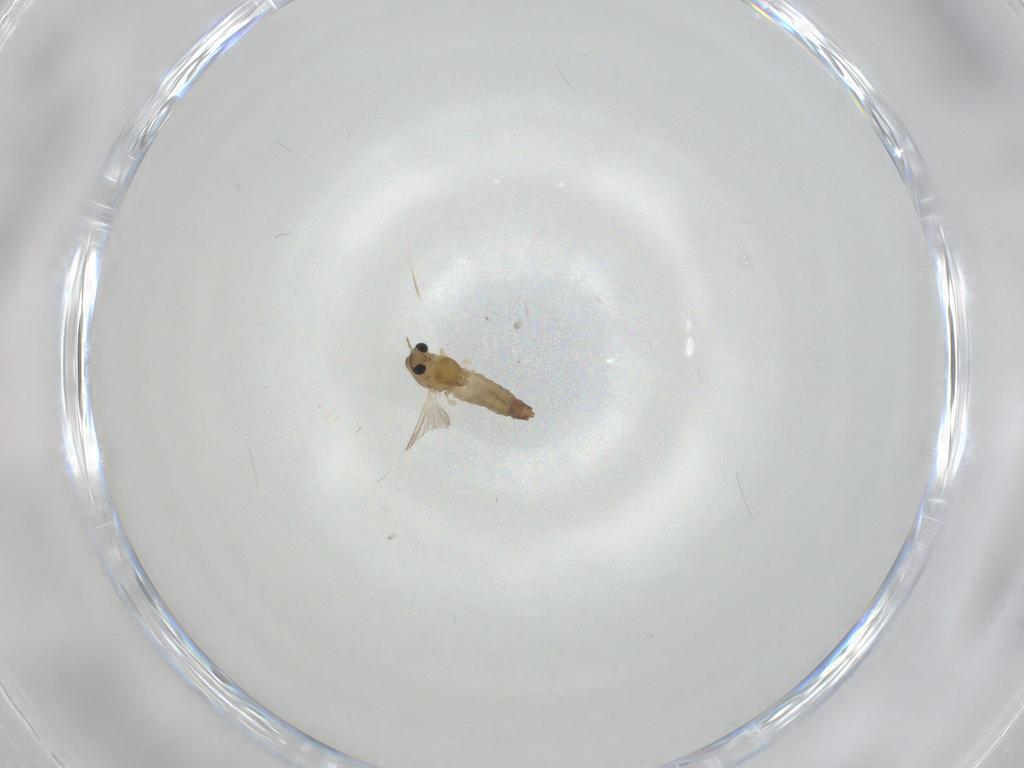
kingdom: Animalia
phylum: Arthropoda
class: Insecta
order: Diptera
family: Chironomidae
